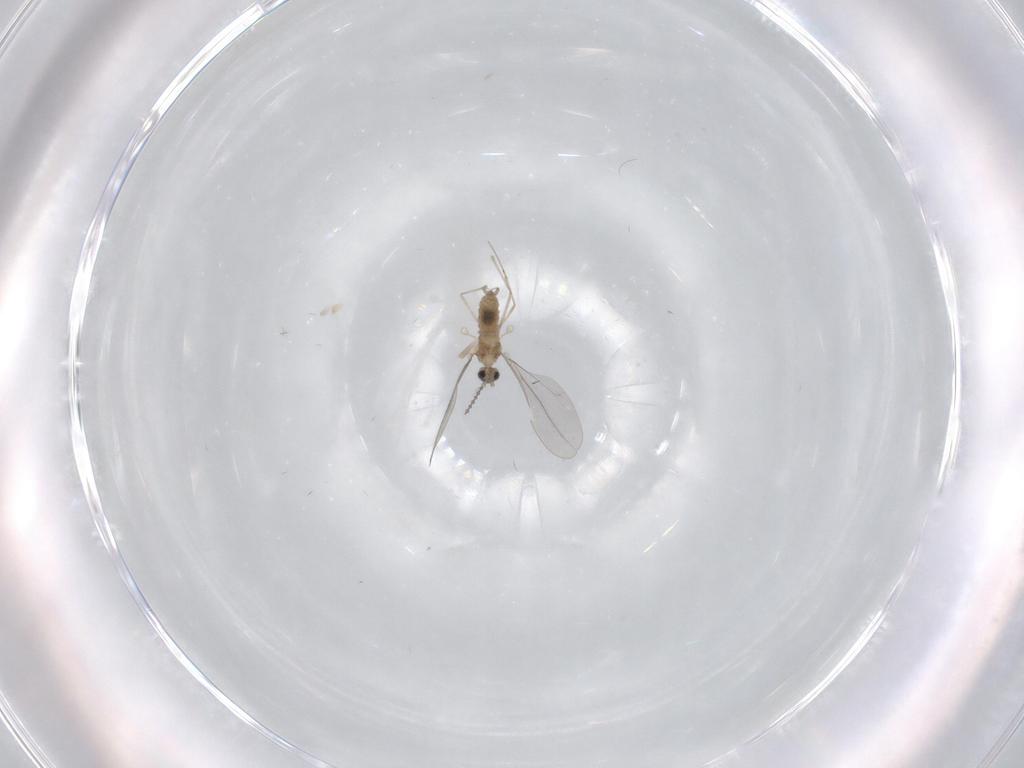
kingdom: Animalia
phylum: Arthropoda
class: Insecta
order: Diptera
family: Cecidomyiidae
